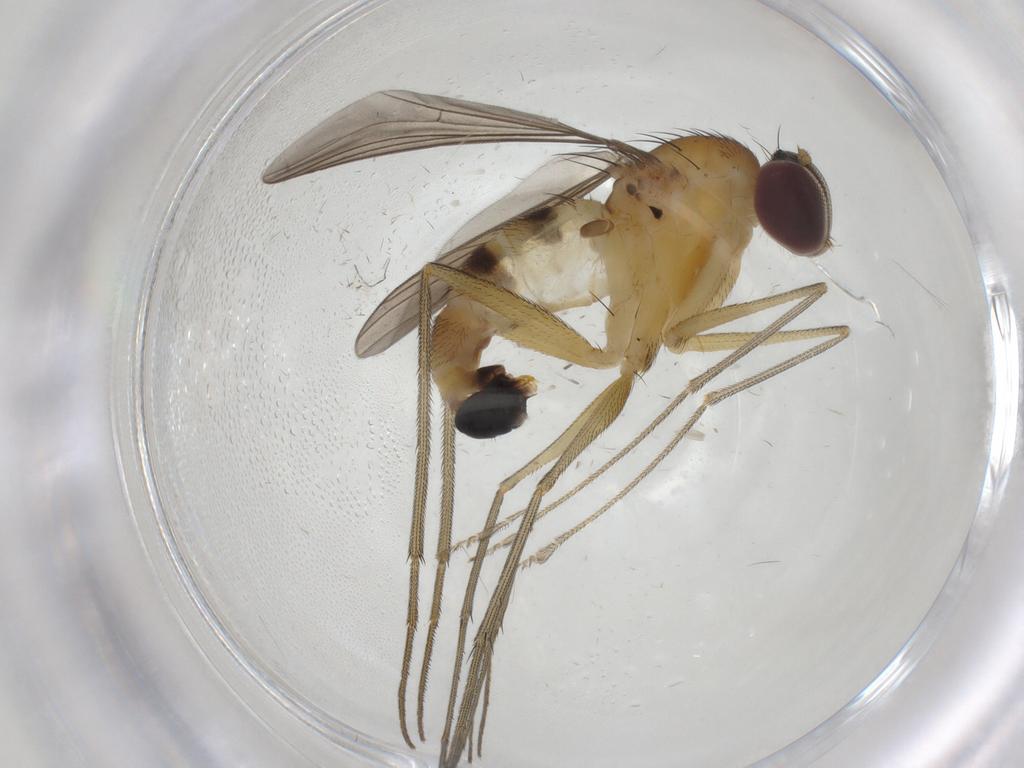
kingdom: Animalia
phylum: Arthropoda
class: Insecta
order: Diptera
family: Dolichopodidae
